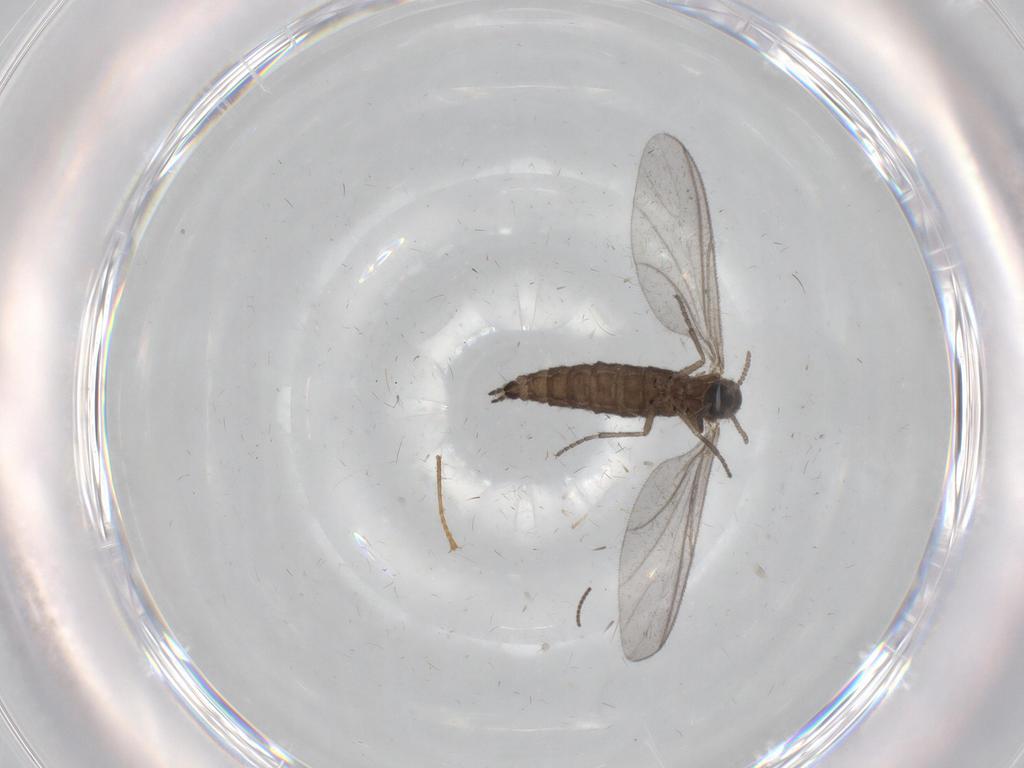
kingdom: Animalia
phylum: Arthropoda
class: Insecta
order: Diptera
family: Sciaridae
